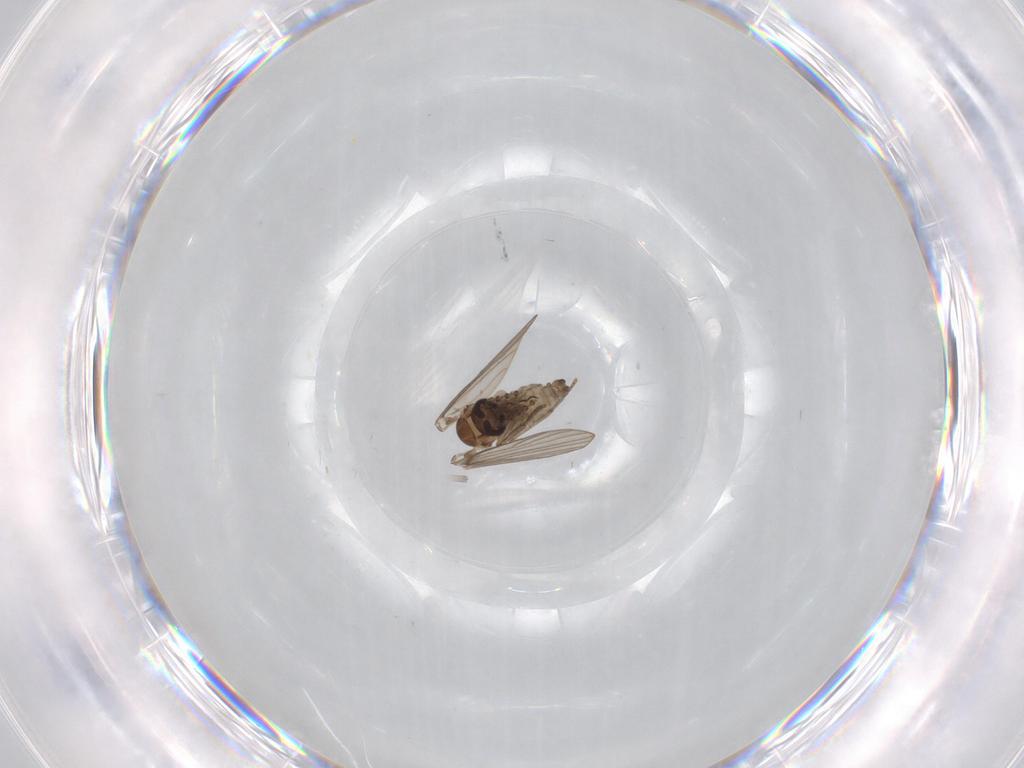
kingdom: Animalia
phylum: Arthropoda
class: Insecta
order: Diptera
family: Psychodidae
